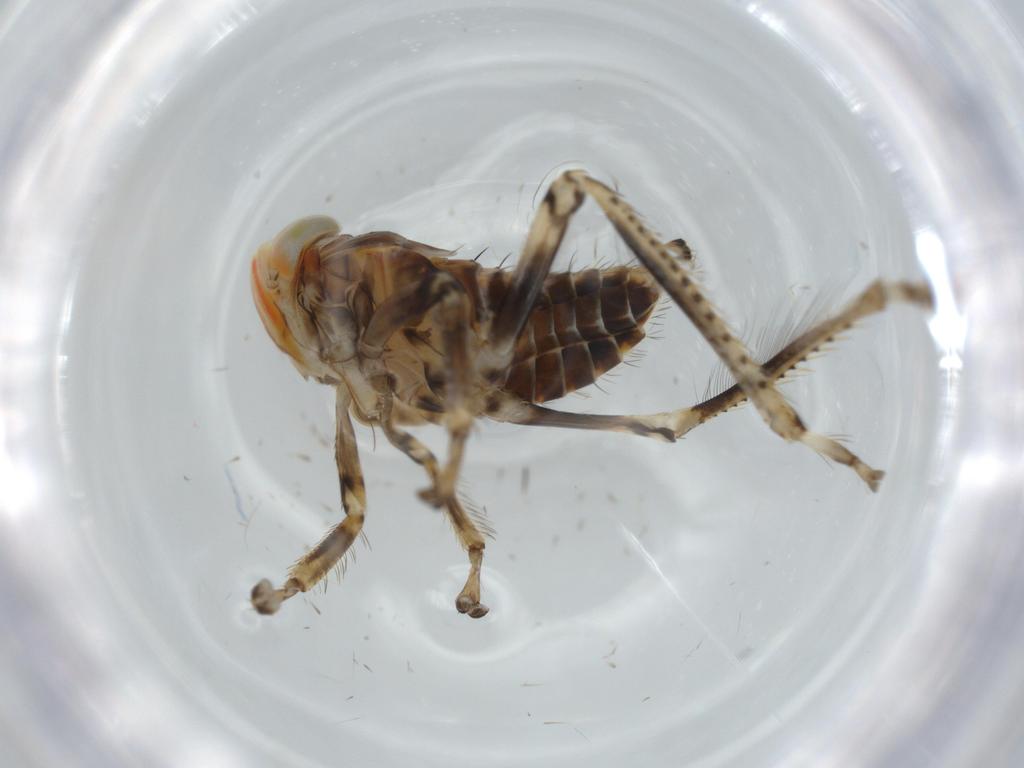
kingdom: Animalia
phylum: Arthropoda
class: Insecta
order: Hemiptera
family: Cicadellidae
